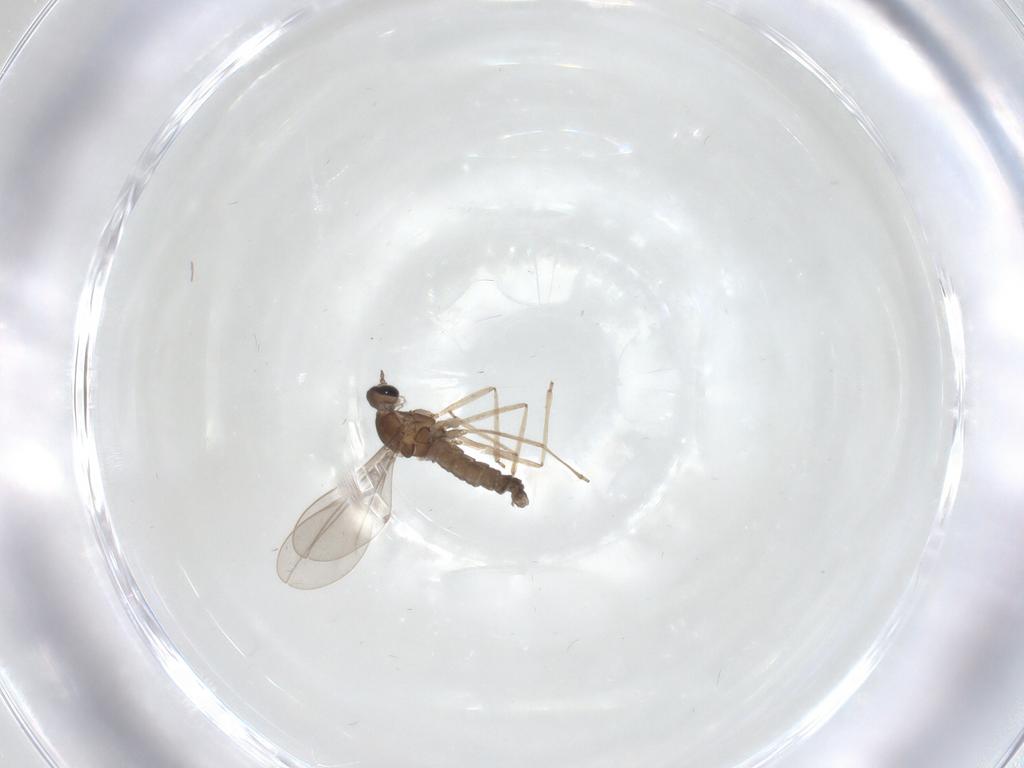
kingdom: Animalia
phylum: Arthropoda
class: Insecta
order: Diptera
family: Cecidomyiidae
